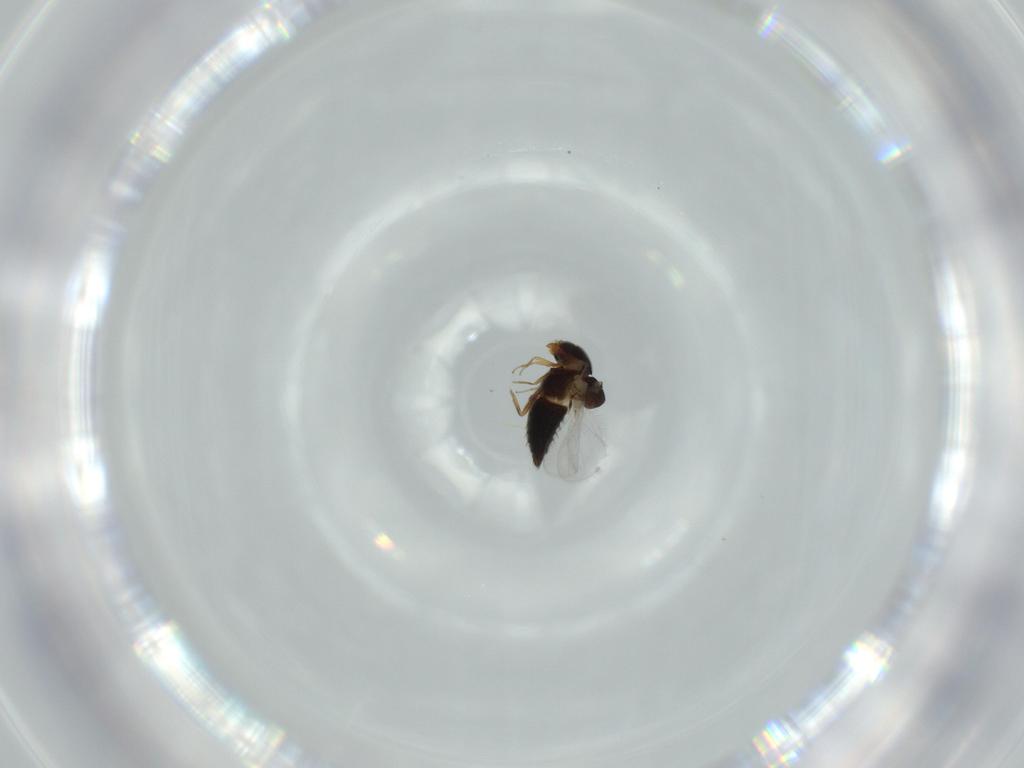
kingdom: Animalia
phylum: Arthropoda
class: Insecta
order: Coleoptera
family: Staphylinidae
